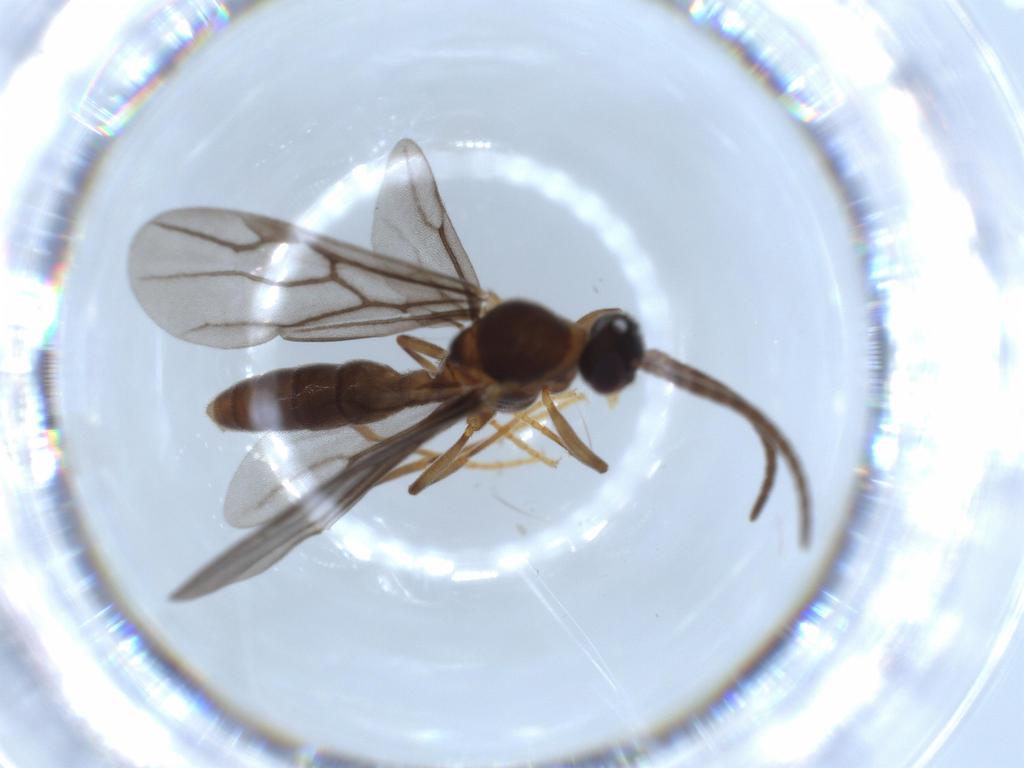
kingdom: Animalia
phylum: Arthropoda
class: Insecta
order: Hymenoptera
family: Formicidae
